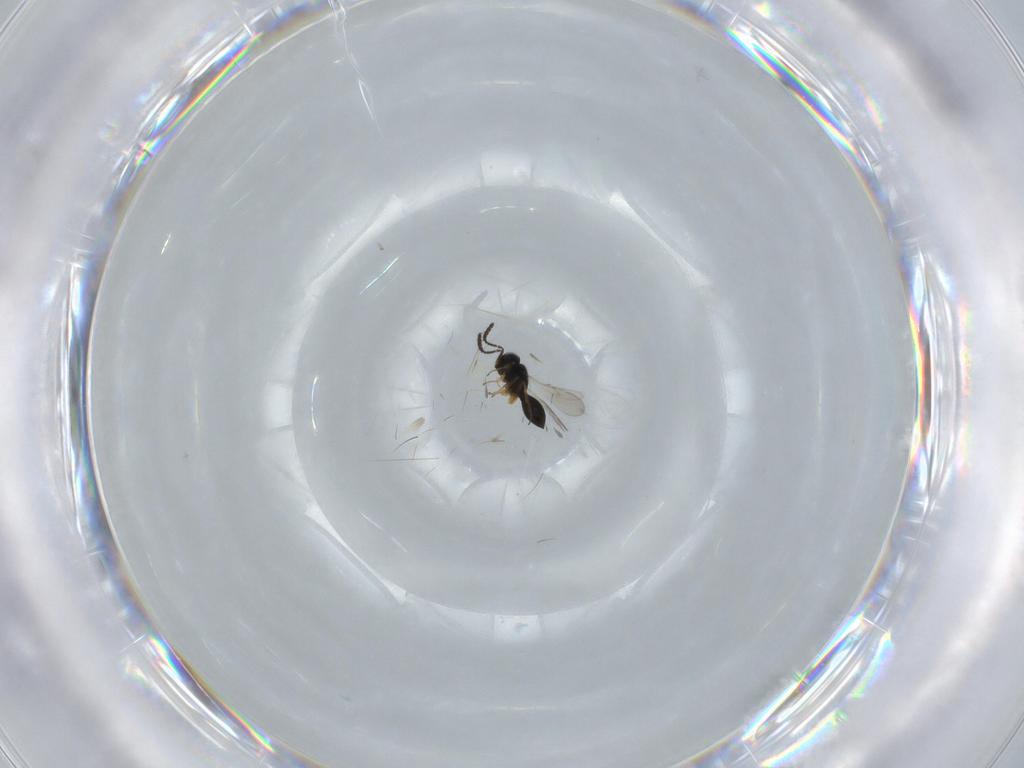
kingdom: Animalia
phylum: Arthropoda
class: Insecta
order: Hymenoptera
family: Scelionidae
